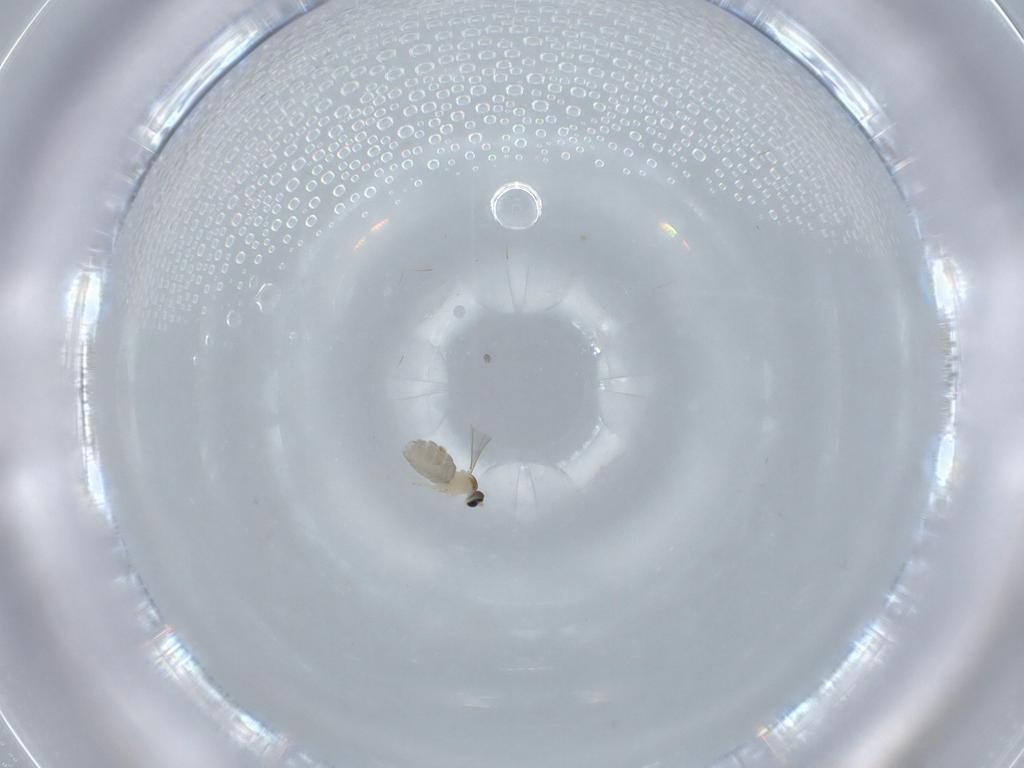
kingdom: Animalia
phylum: Arthropoda
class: Insecta
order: Diptera
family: Cecidomyiidae
